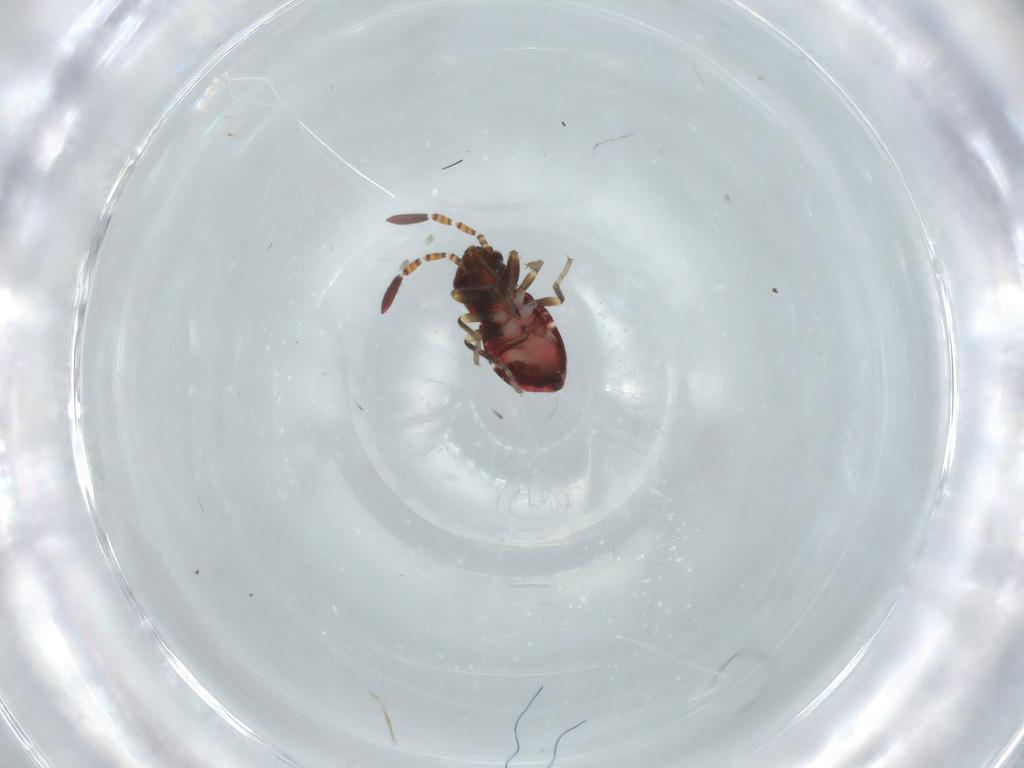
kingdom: Animalia
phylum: Arthropoda
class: Insecta
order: Hemiptera
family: Rhyparochromidae
